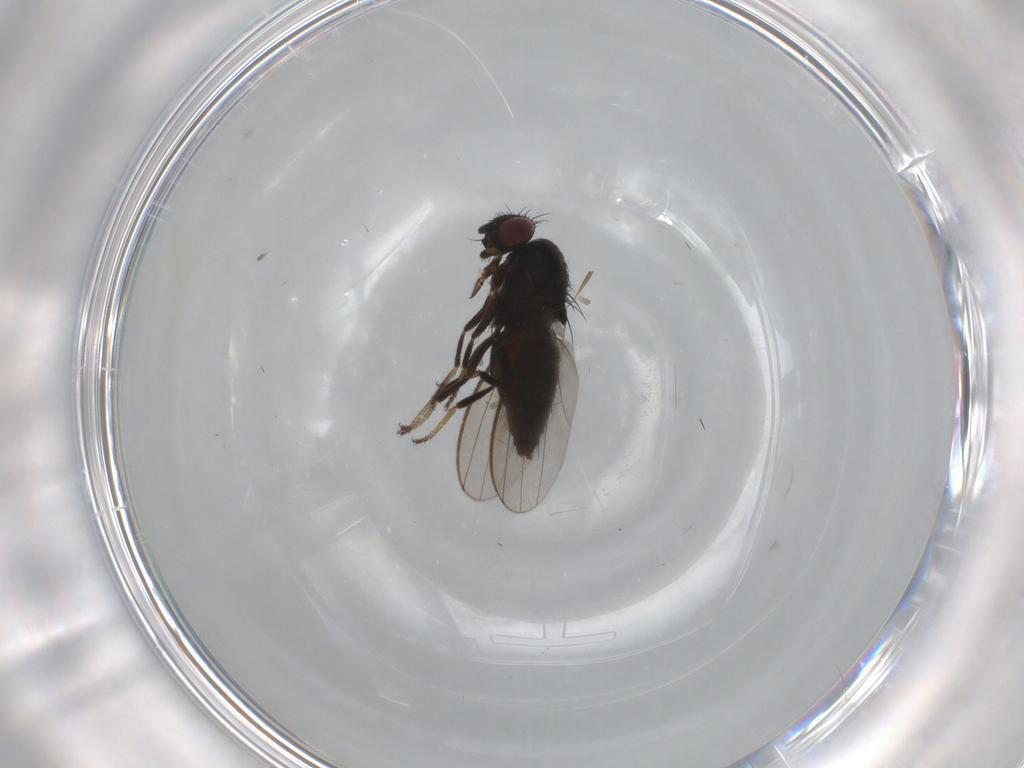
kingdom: Animalia
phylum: Arthropoda
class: Insecta
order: Diptera
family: Milichiidae
